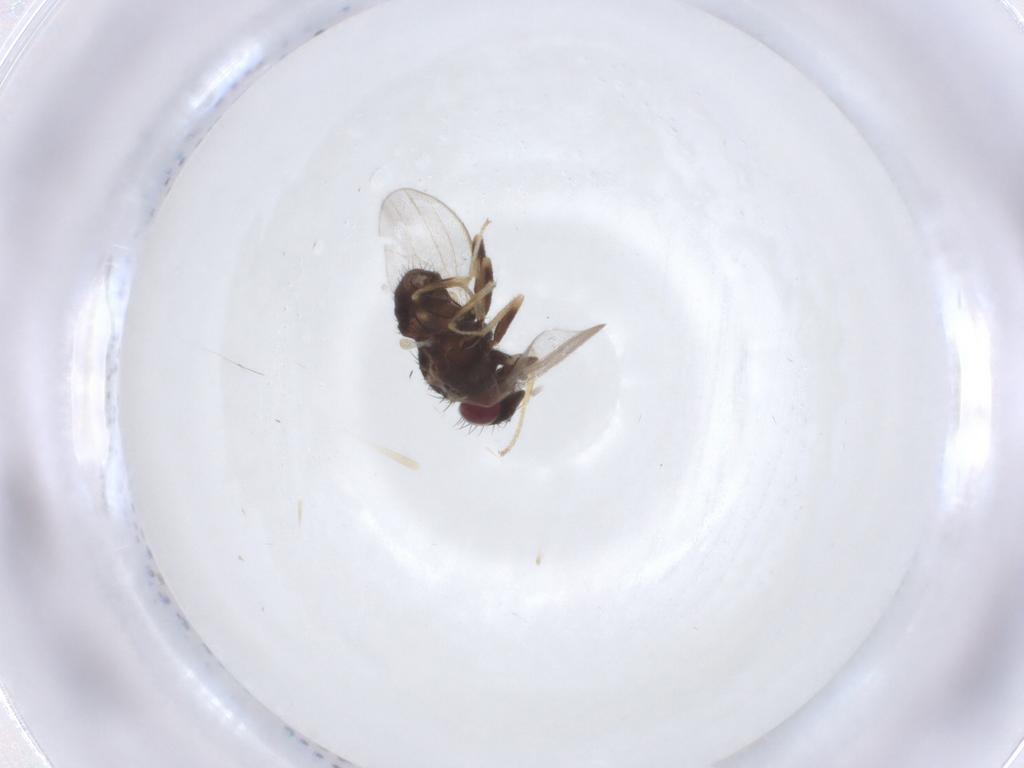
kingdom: Animalia
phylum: Arthropoda
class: Insecta
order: Diptera
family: Milichiidae
